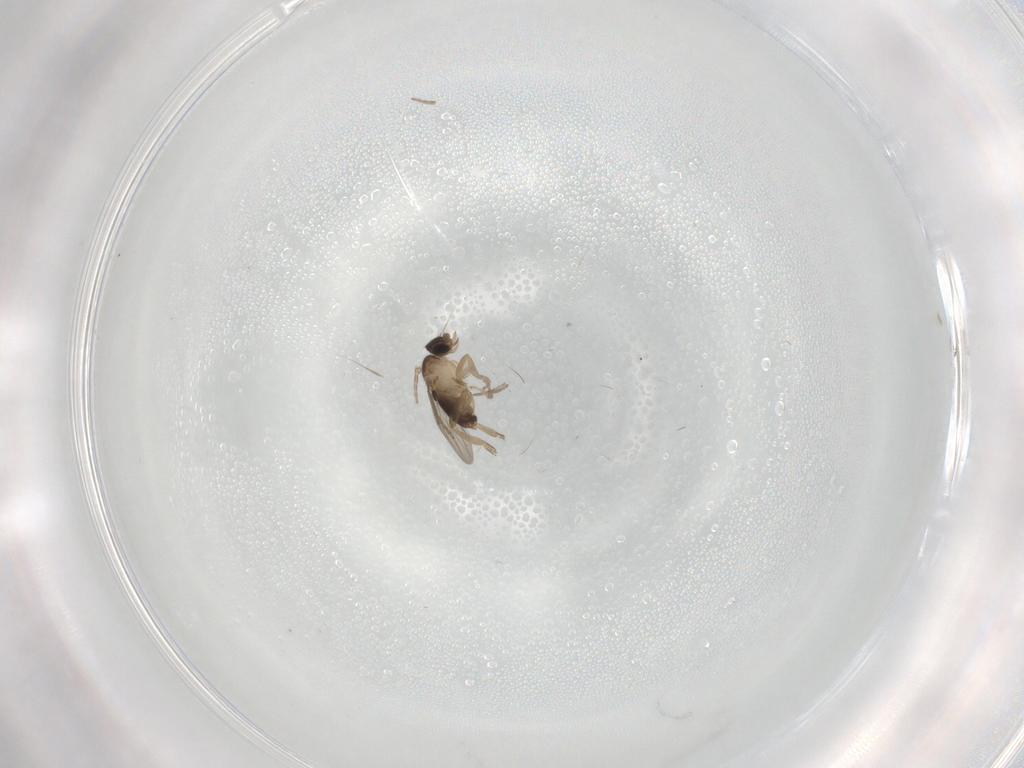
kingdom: Animalia
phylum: Arthropoda
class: Insecta
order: Diptera
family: Phoridae
